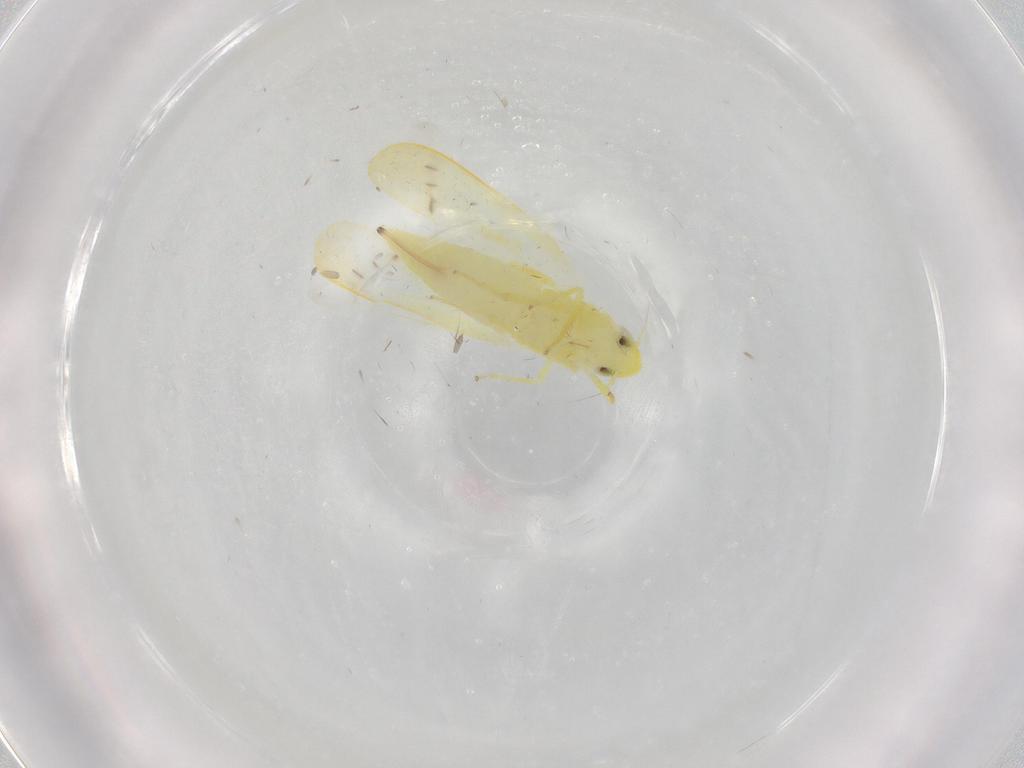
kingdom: Animalia
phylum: Arthropoda
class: Insecta
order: Hemiptera
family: Cicadellidae
